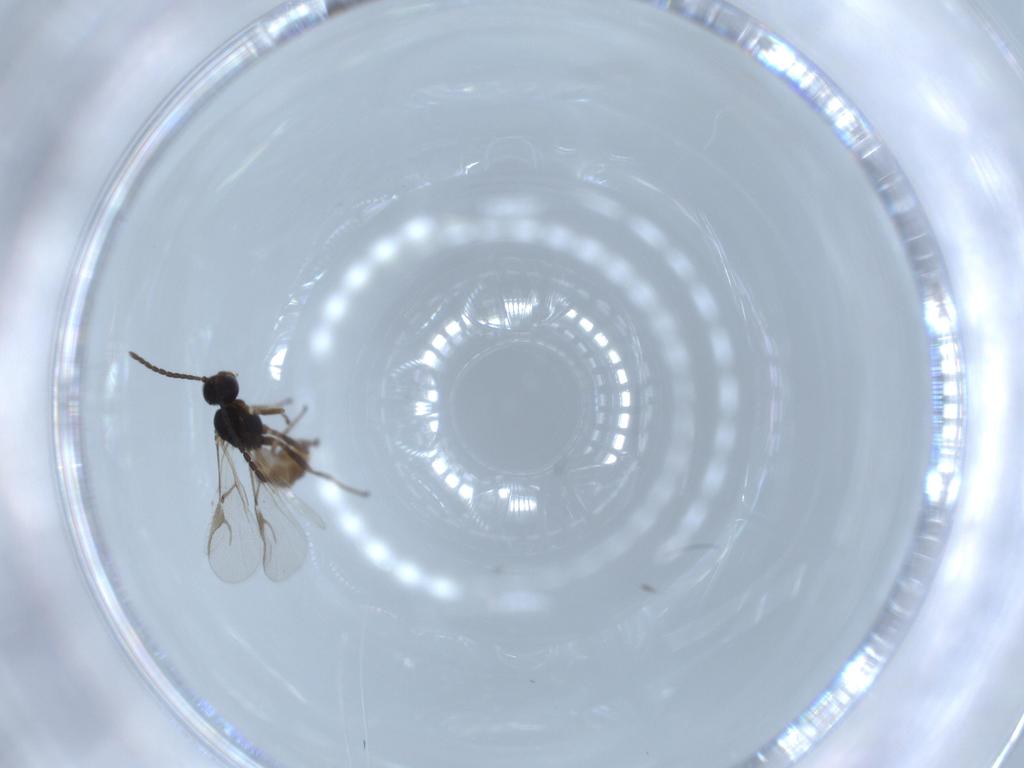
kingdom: Animalia
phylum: Arthropoda
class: Insecta
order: Hymenoptera
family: Braconidae
